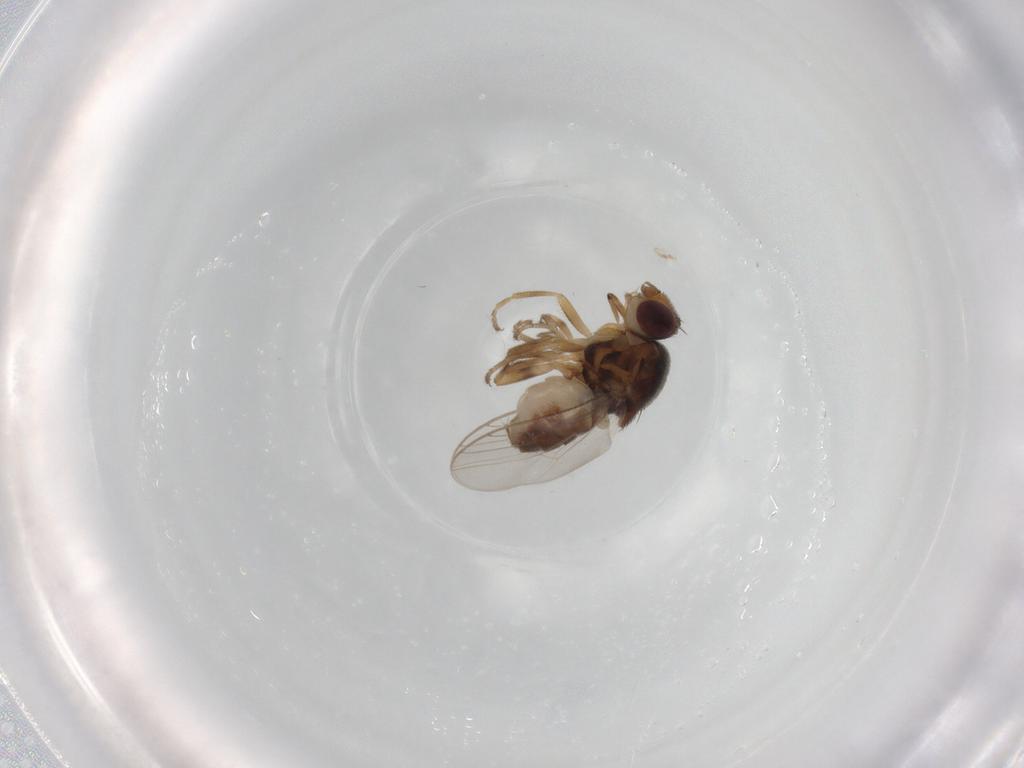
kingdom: Animalia
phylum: Arthropoda
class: Insecta
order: Diptera
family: Chloropidae
